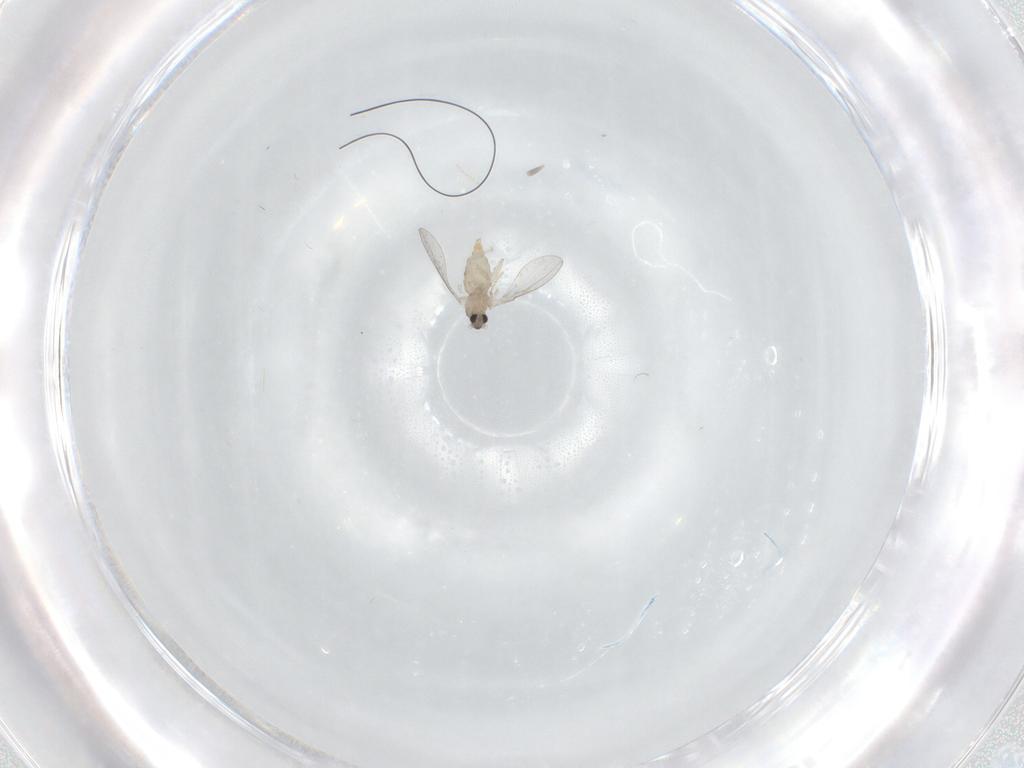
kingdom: Animalia
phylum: Arthropoda
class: Insecta
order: Diptera
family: Cecidomyiidae
